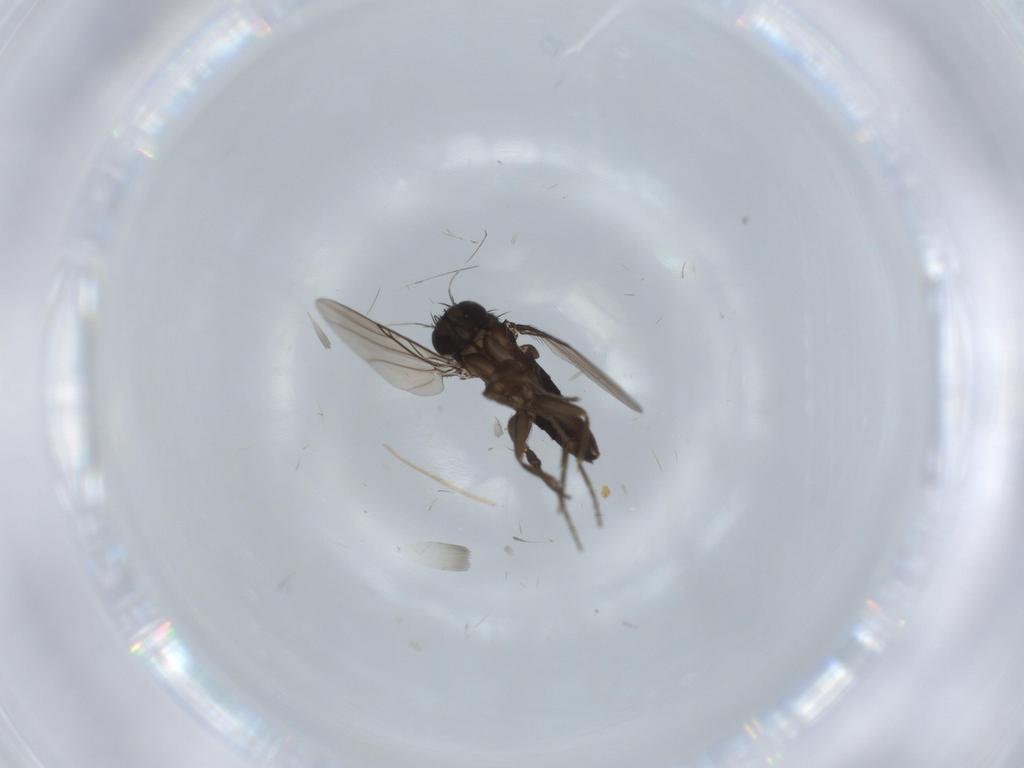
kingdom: Animalia
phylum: Arthropoda
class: Insecta
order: Diptera
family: Phoridae
